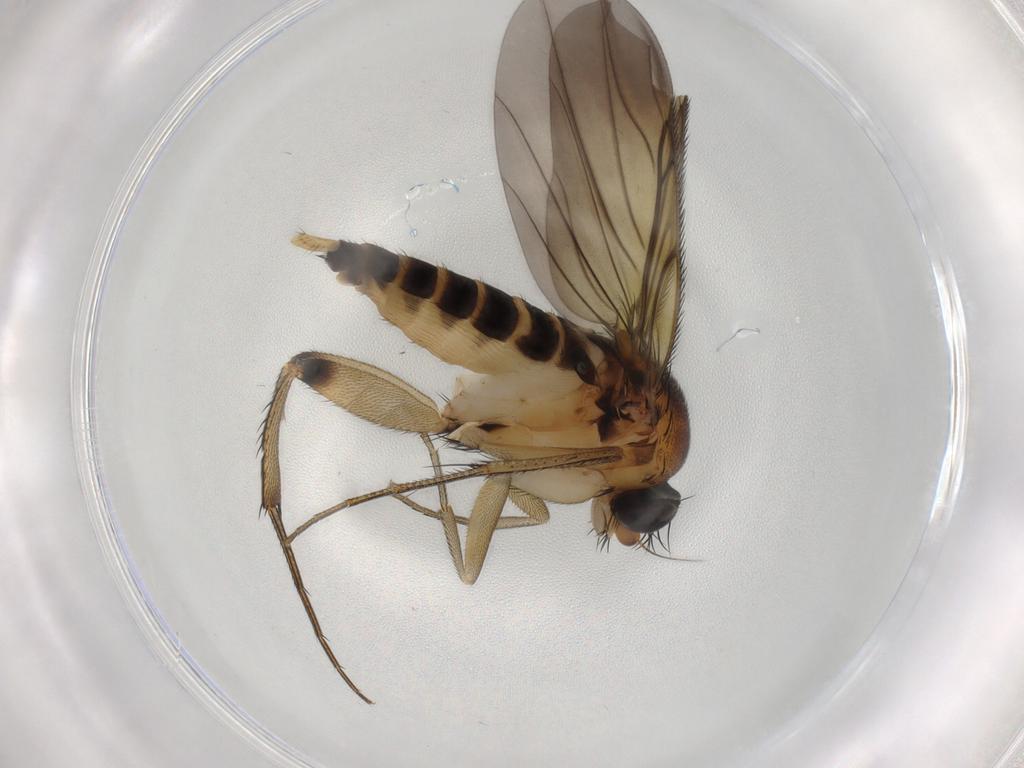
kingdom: Animalia
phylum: Arthropoda
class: Insecta
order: Diptera
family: Phoridae
